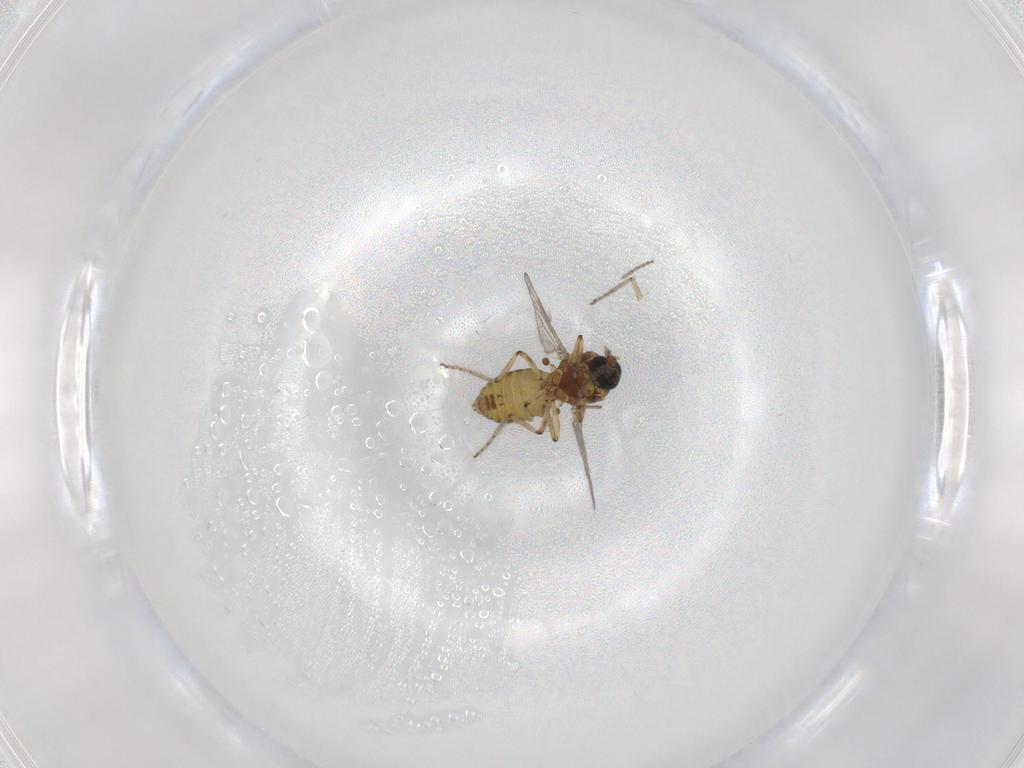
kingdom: Animalia
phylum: Arthropoda
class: Insecta
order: Diptera
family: Ceratopogonidae
